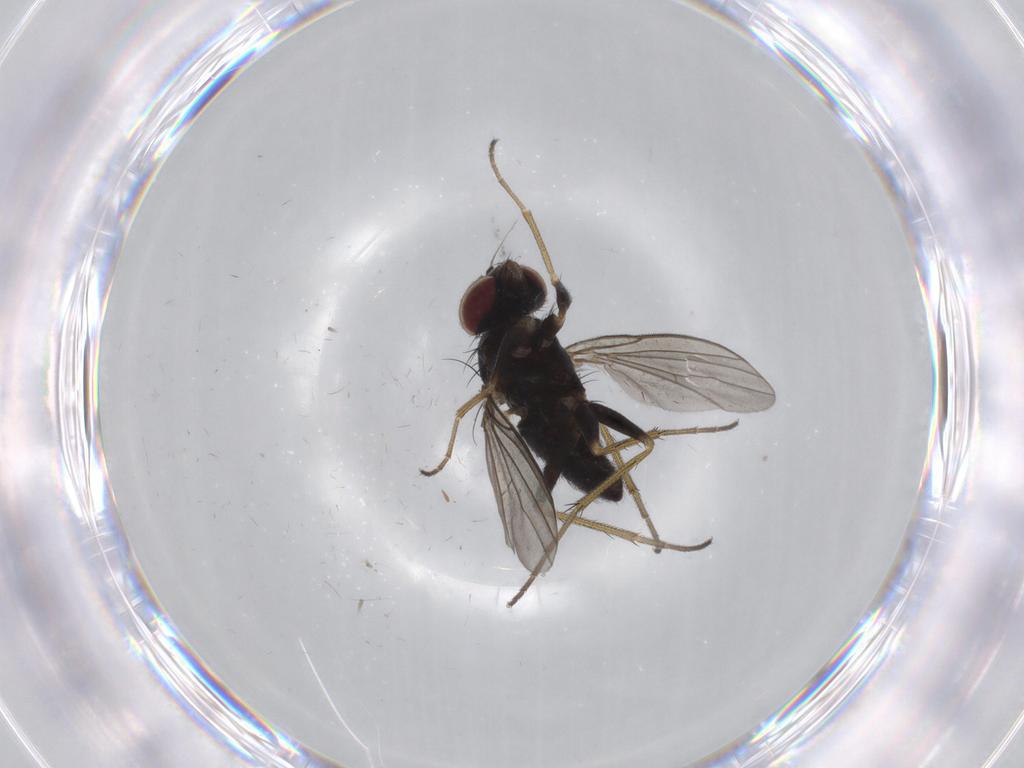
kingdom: Animalia
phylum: Arthropoda
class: Insecta
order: Diptera
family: Dolichopodidae
